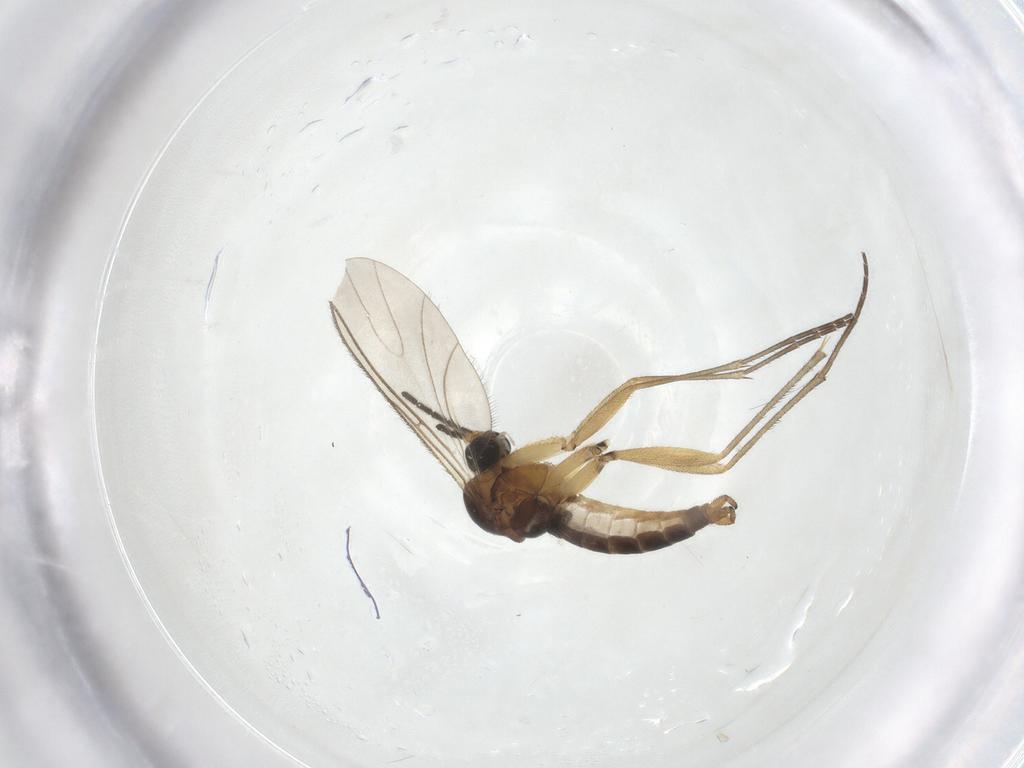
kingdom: Animalia
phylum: Arthropoda
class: Insecta
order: Diptera
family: Sciaridae
